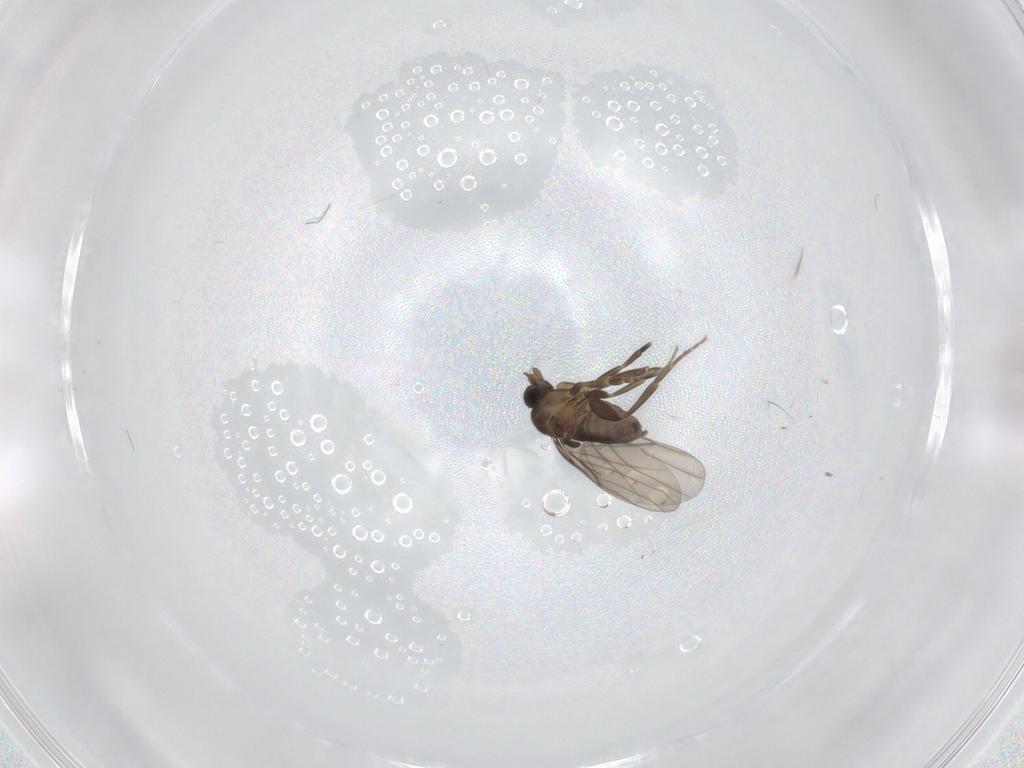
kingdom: Animalia
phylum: Arthropoda
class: Insecta
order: Diptera
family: Phoridae
